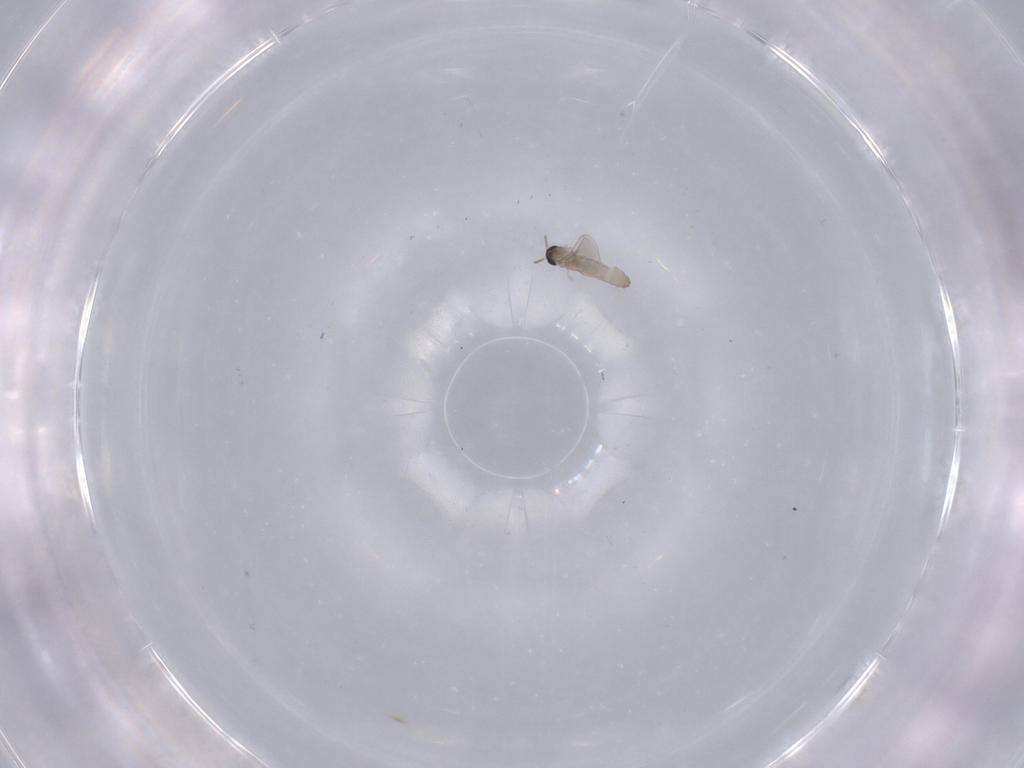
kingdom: Animalia
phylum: Arthropoda
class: Insecta
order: Diptera
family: Cecidomyiidae
